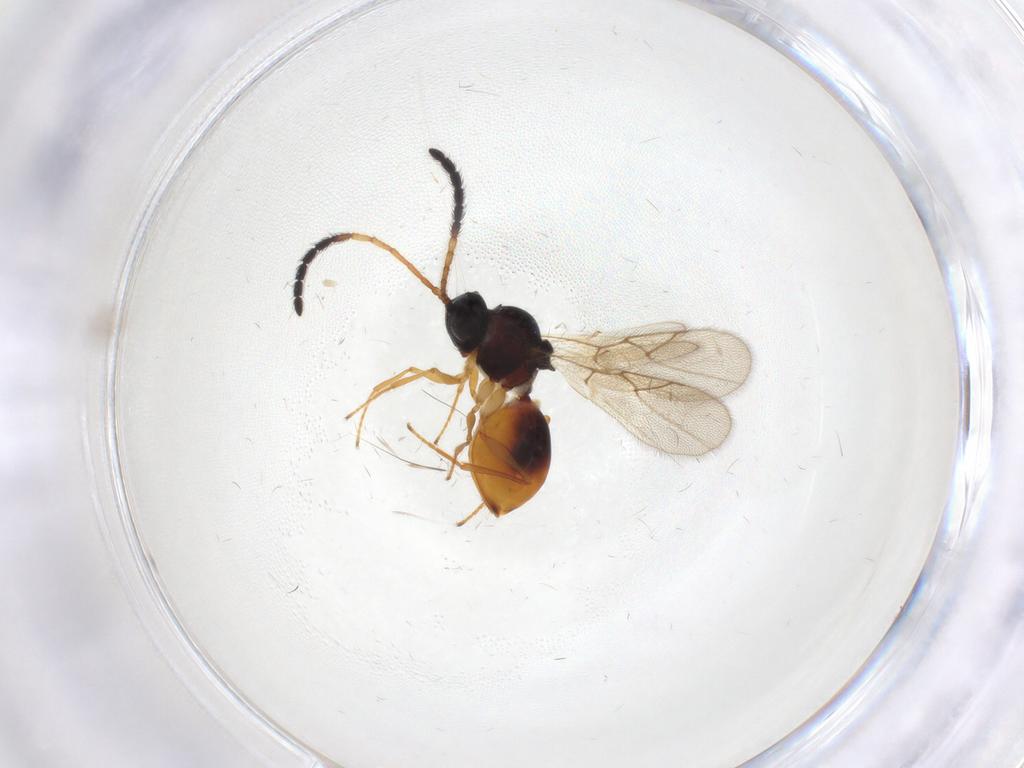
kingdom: Animalia
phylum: Arthropoda
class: Insecta
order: Hymenoptera
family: Figitidae
